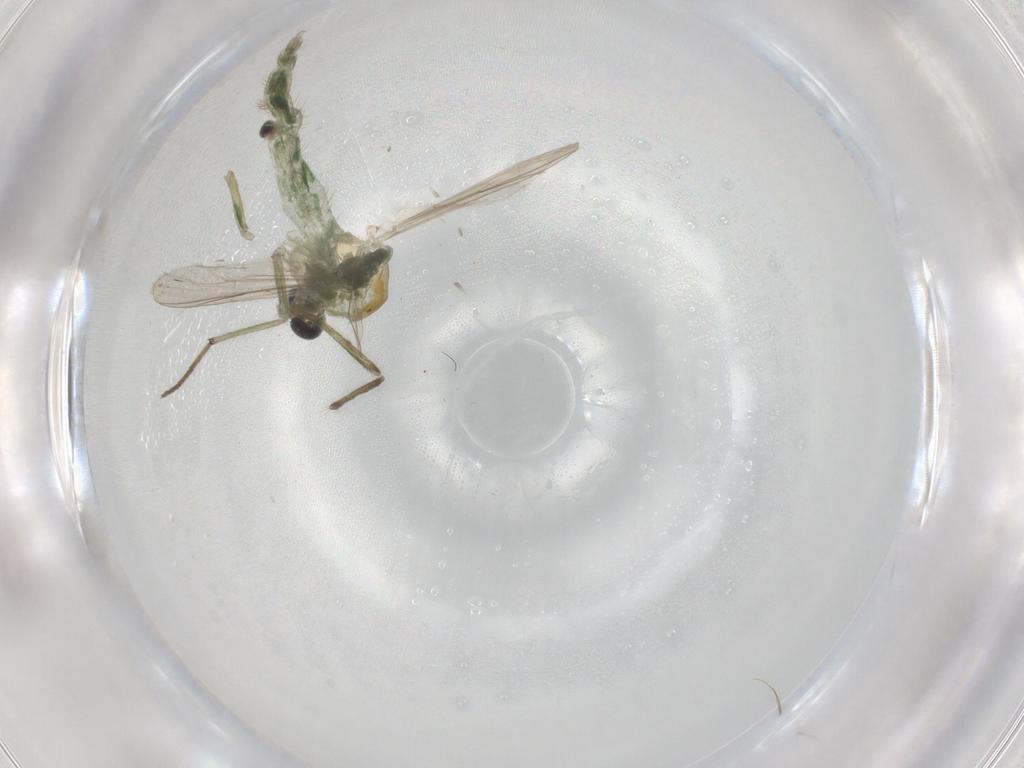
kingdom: Animalia
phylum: Arthropoda
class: Insecta
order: Diptera
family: Chironomidae
